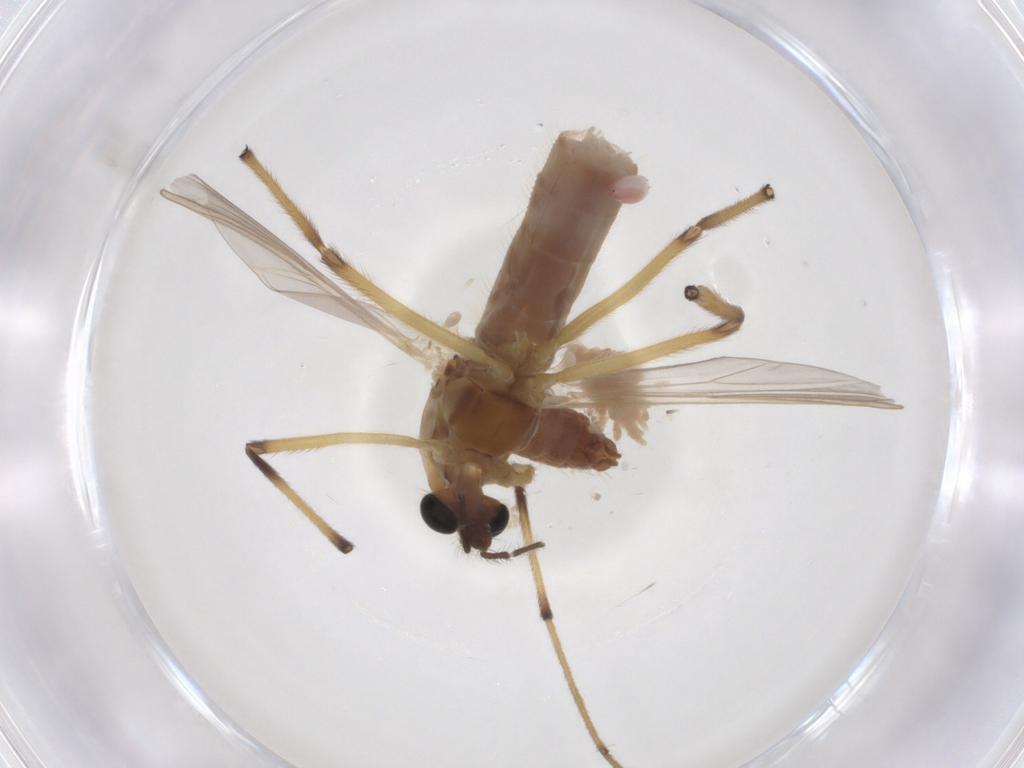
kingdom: Animalia
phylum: Arthropoda
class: Insecta
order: Diptera
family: Chironomidae
